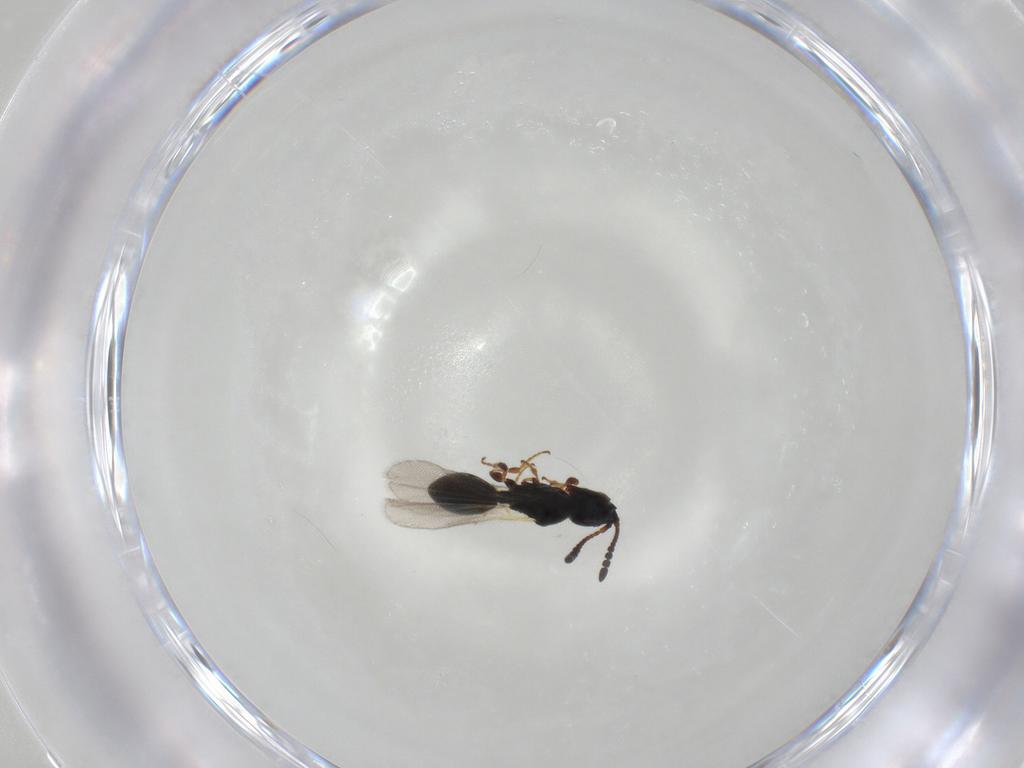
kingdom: Animalia
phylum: Arthropoda
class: Insecta
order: Hymenoptera
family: Diapriidae
